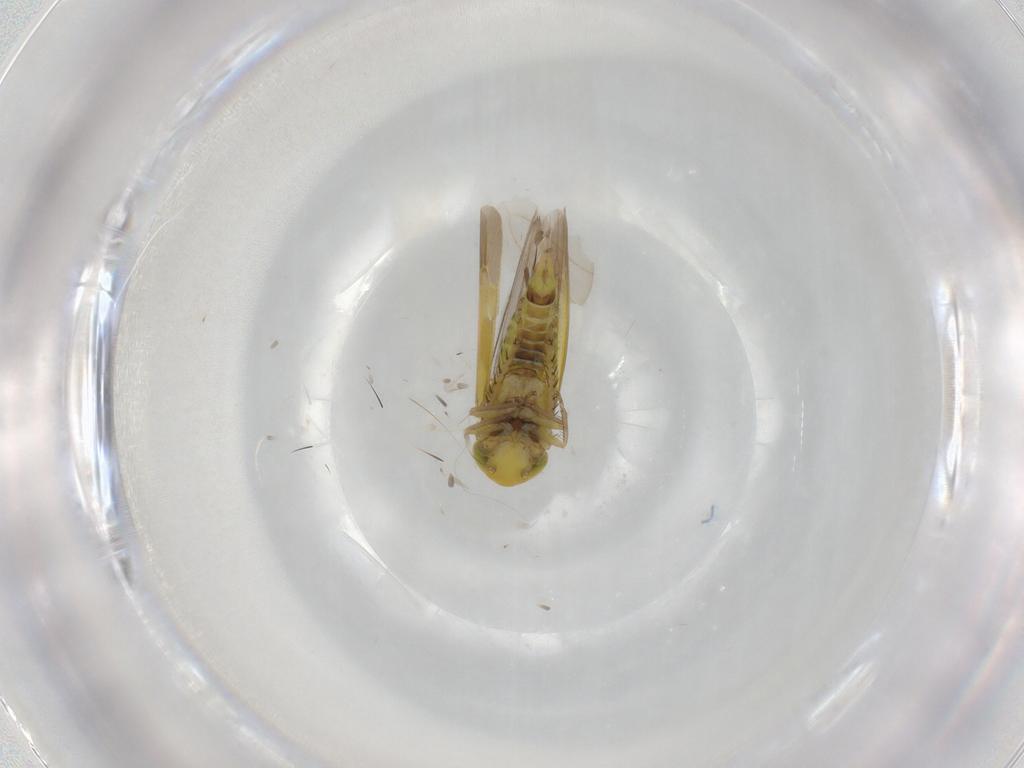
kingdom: Animalia
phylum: Arthropoda
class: Insecta
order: Hemiptera
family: Cicadellidae
